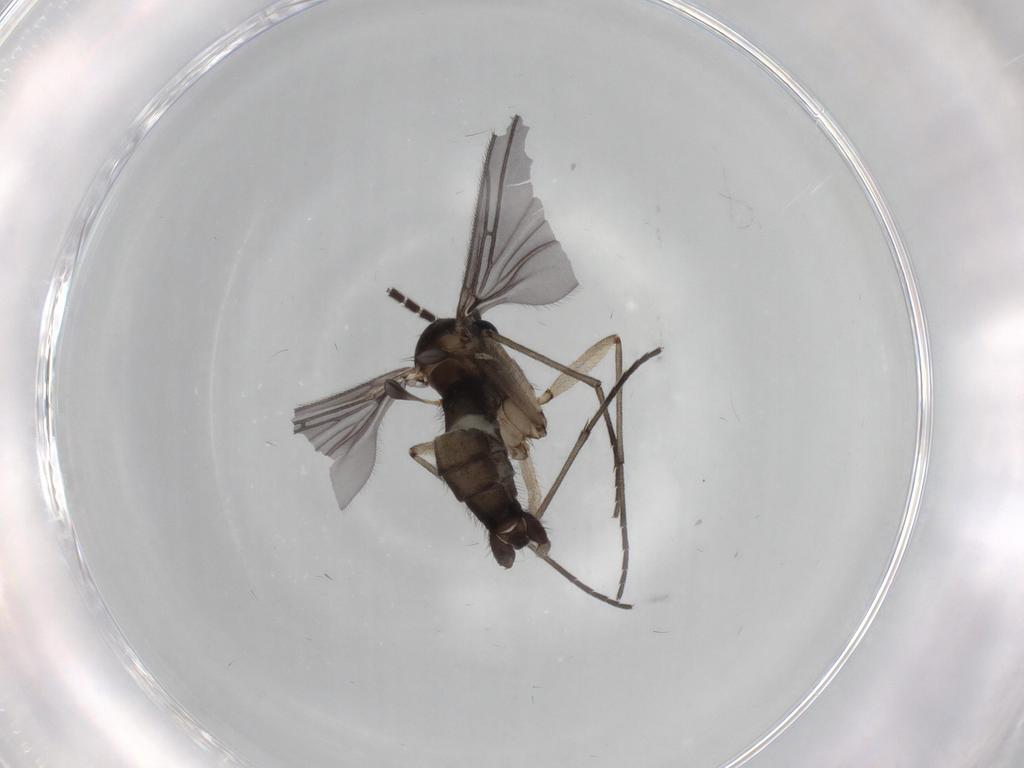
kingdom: Animalia
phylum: Arthropoda
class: Insecta
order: Diptera
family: Sciaridae
